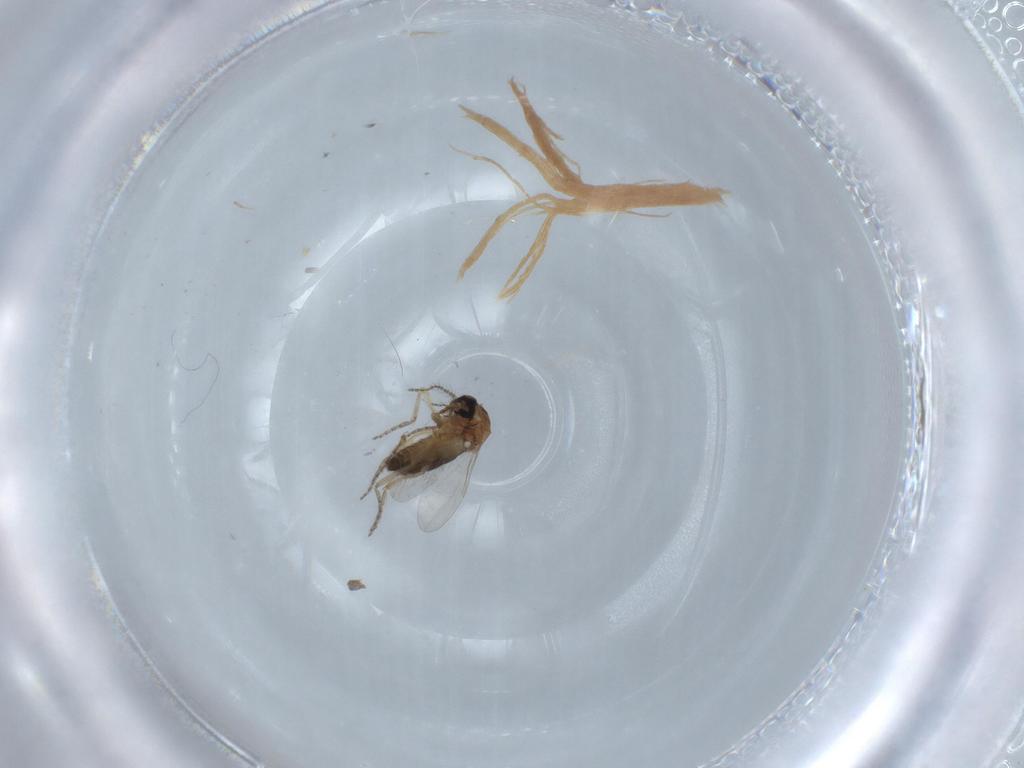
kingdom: Animalia
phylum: Arthropoda
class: Insecta
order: Diptera
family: Ceratopogonidae
